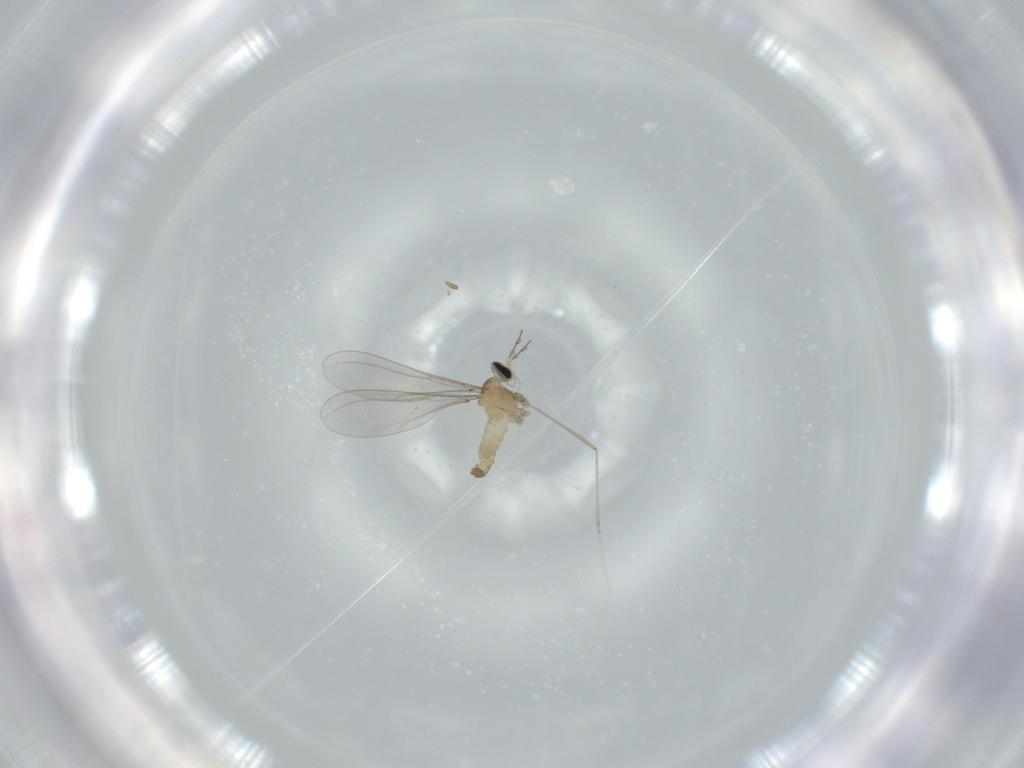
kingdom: Animalia
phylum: Arthropoda
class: Insecta
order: Diptera
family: Cecidomyiidae
